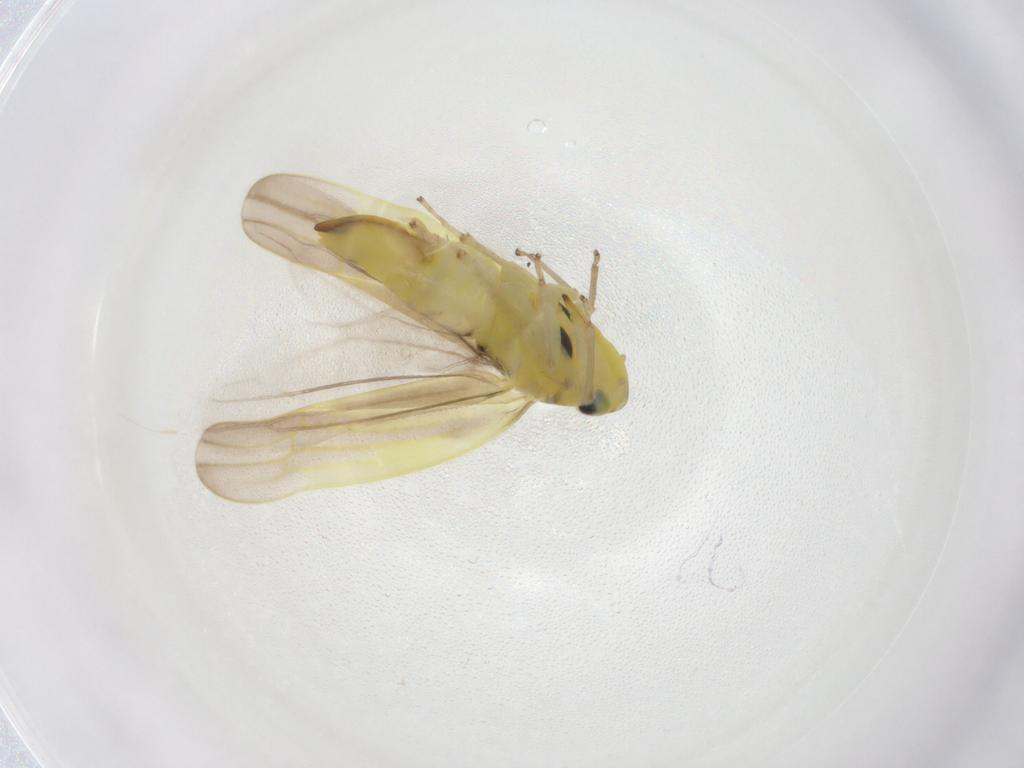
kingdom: Animalia
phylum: Arthropoda
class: Insecta
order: Hemiptera
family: Cicadellidae
